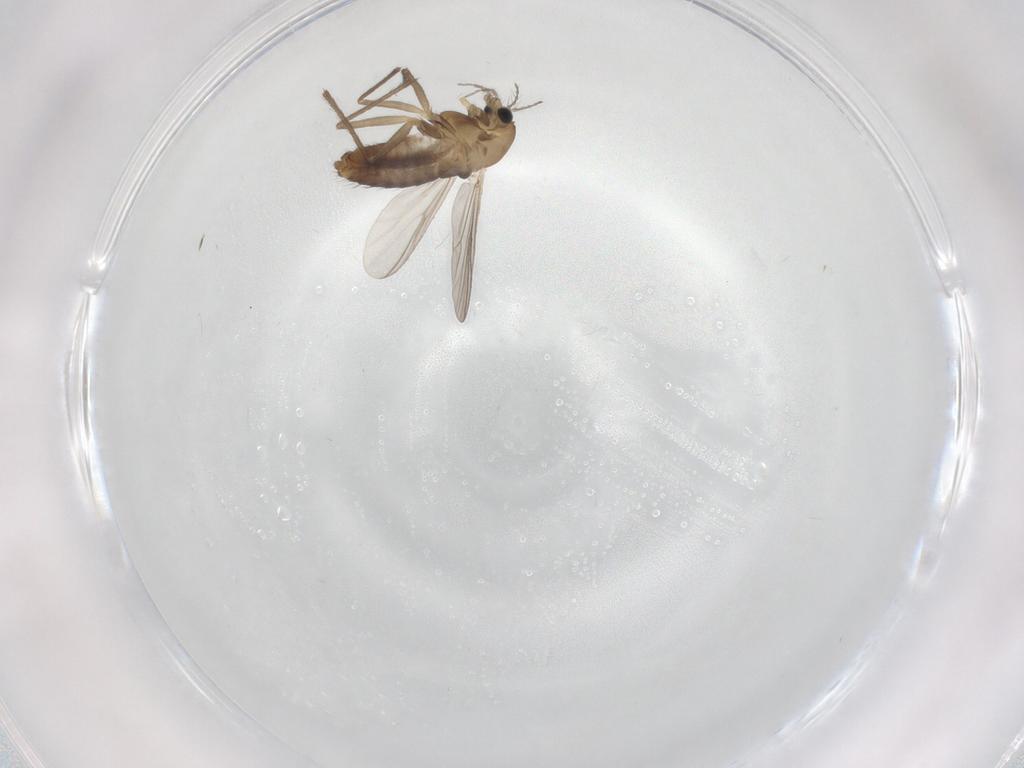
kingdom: Animalia
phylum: Arthropoda
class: Insecta
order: Diptera
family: Chironomidae
